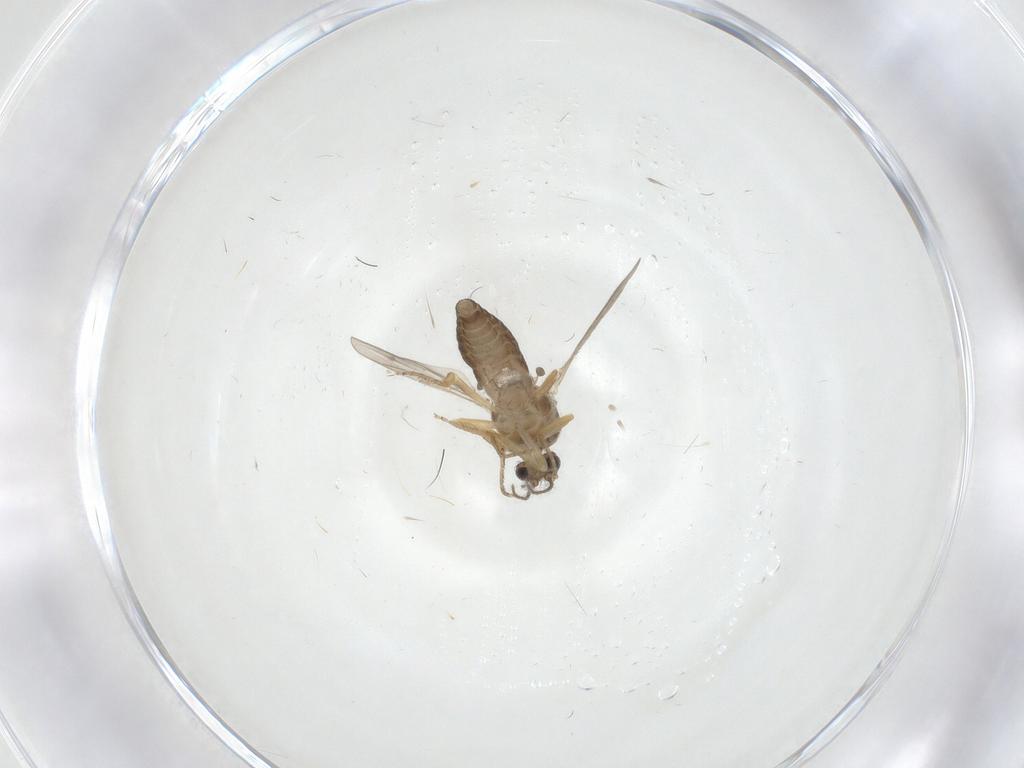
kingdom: Animalia
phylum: Arthropoda
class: Insecta
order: Diptera
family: Ceratopogonidae
